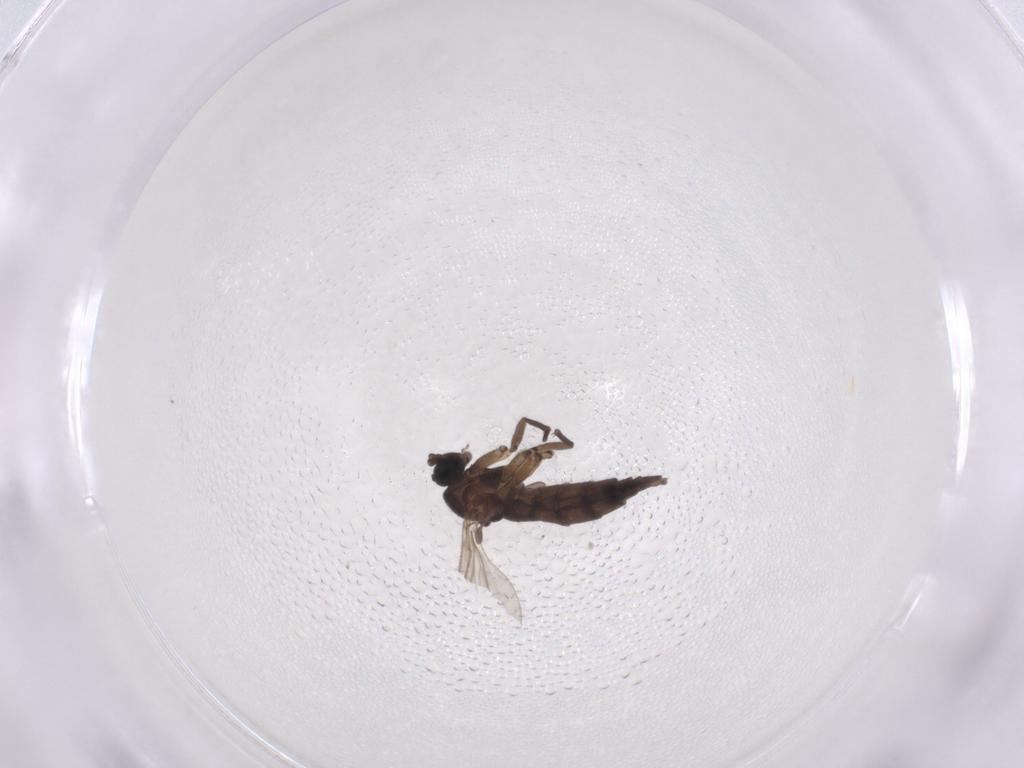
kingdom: Animalia
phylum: Arthropoda
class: Insecta
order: Diptera
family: Sciaridae
